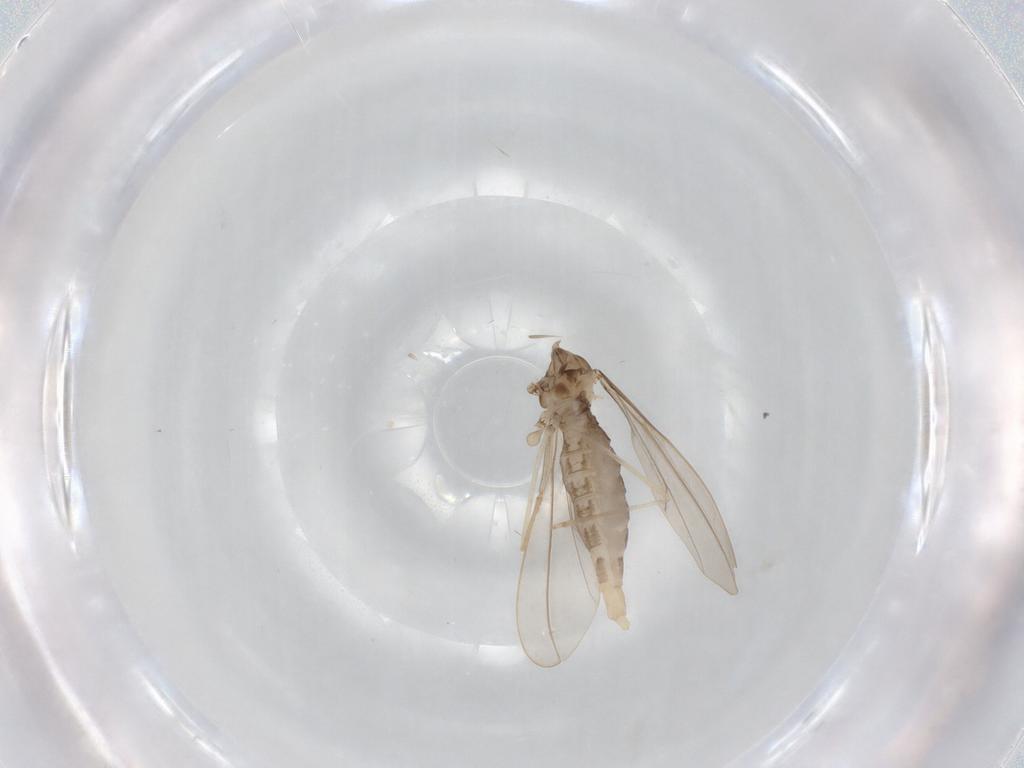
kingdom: Animalia
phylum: Arthropoda
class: Insecta
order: Diptera
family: Cecidomyiidae
